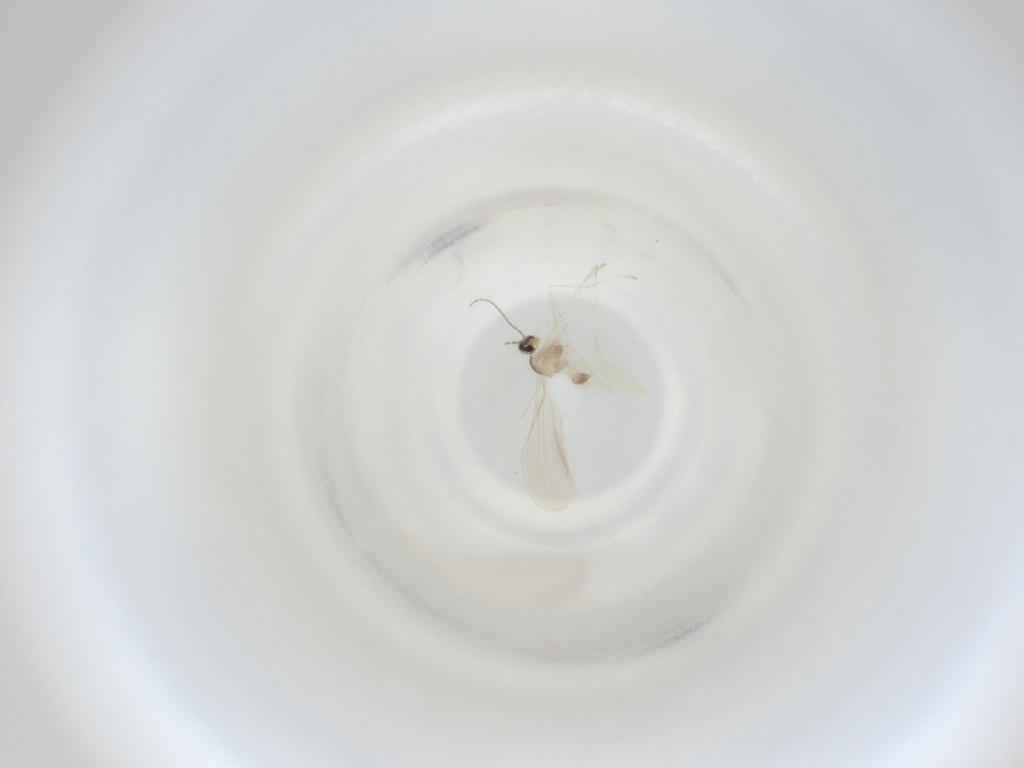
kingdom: Animalia
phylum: Arthropoda
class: Insecta
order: Diptera
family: Cecidomyiidae
